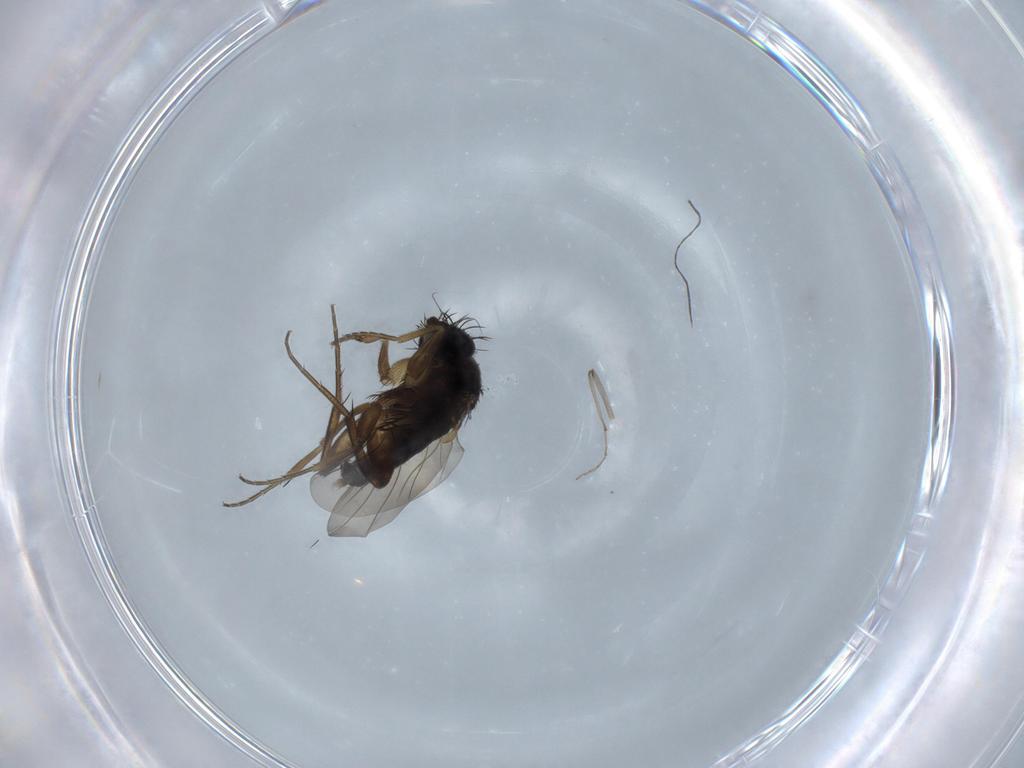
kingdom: Animalia
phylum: Arthropoda
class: Insecta
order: Diptera
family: Phoridae
